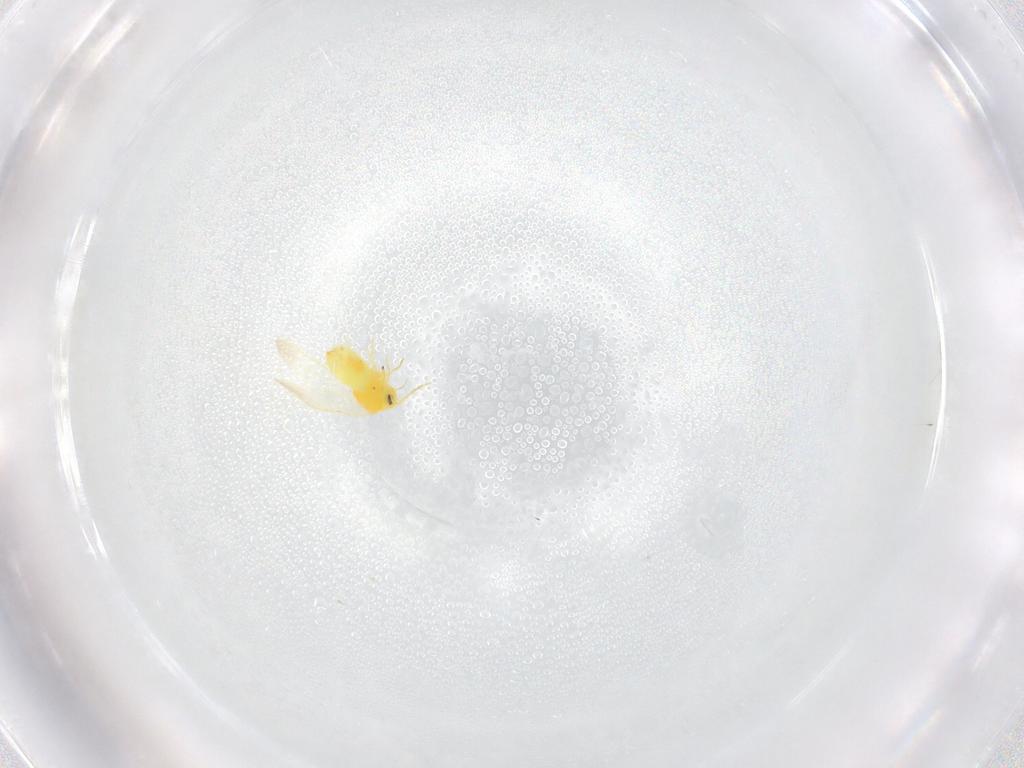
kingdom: Animalia
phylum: Arthropoda
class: Insecta
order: Hemiptera
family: Aleyrodidae
